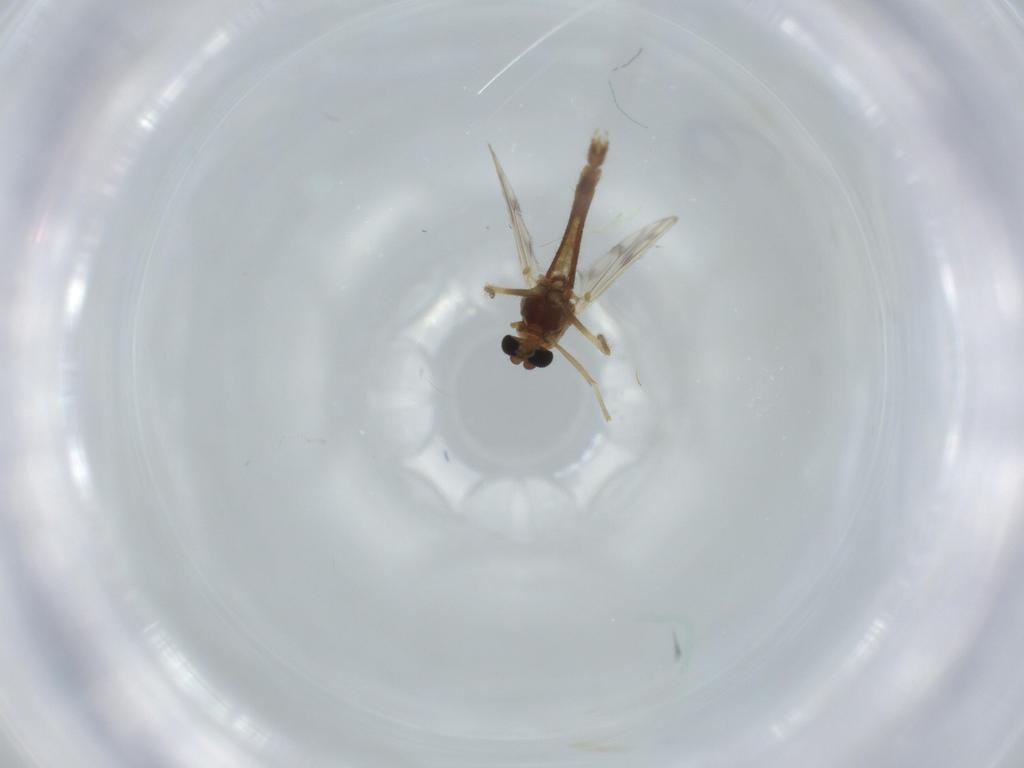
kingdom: Animalia
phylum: Arthropoda
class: Insecta
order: Diptera
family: Chironomidae
